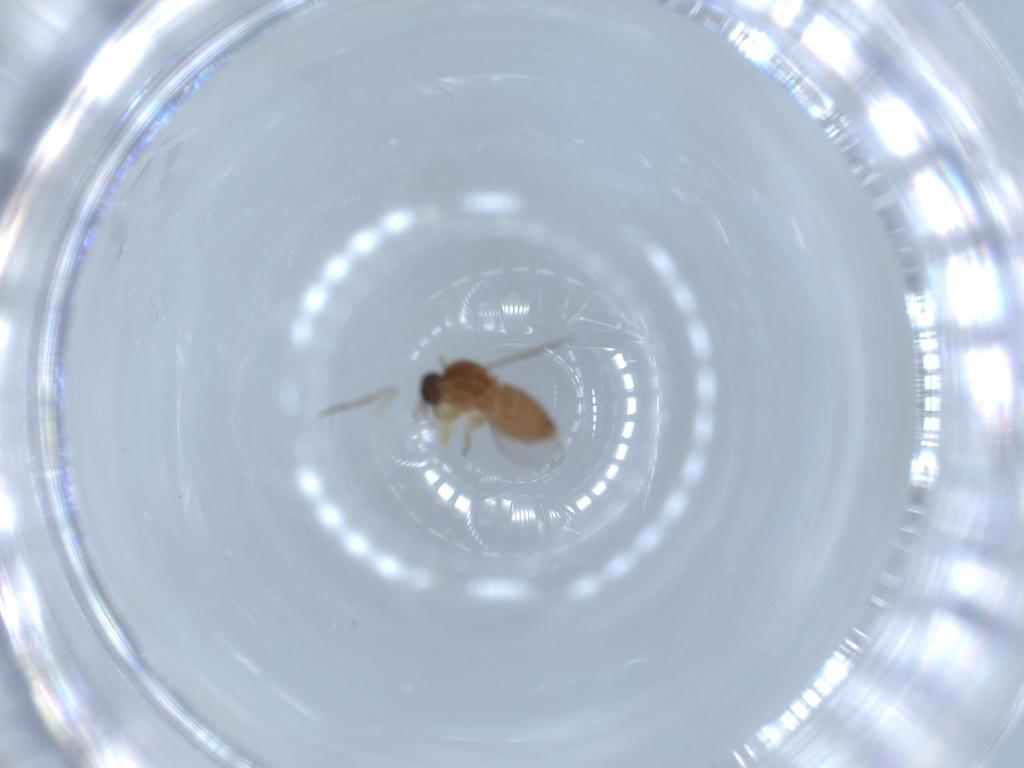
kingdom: Animalia
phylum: Arthropoda
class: Insecta
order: Diptera
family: Ceratopogonidae
